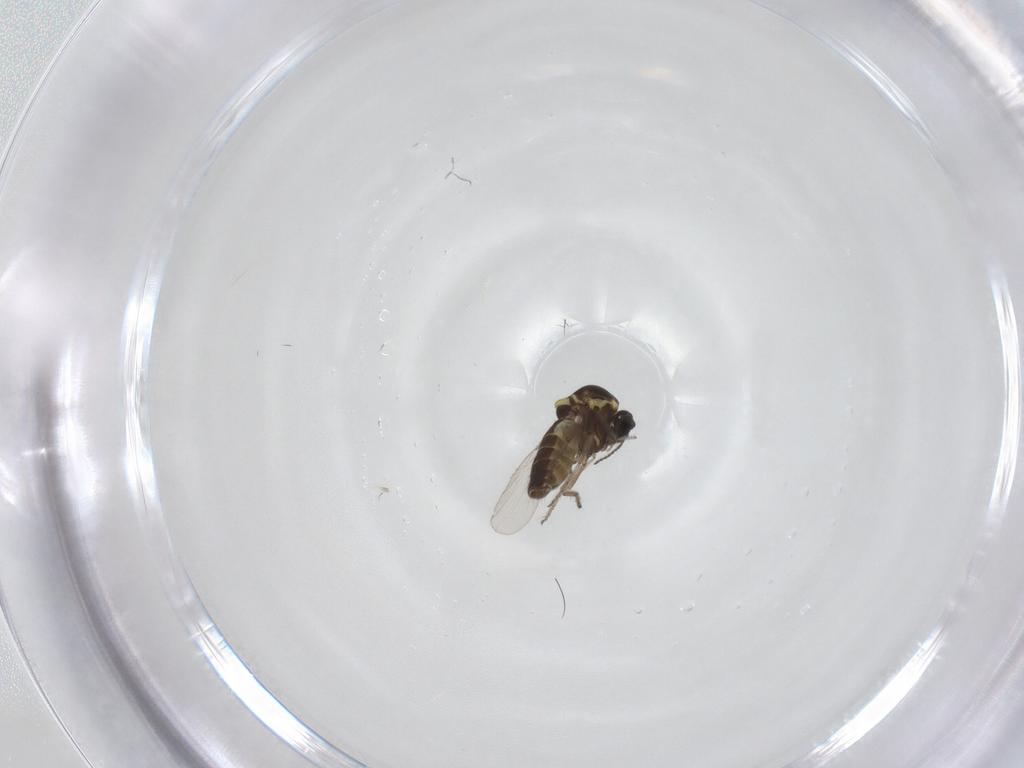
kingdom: Animalia
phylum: Arthropoda
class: Insecta
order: Diptera
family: Ceratopogonidae
